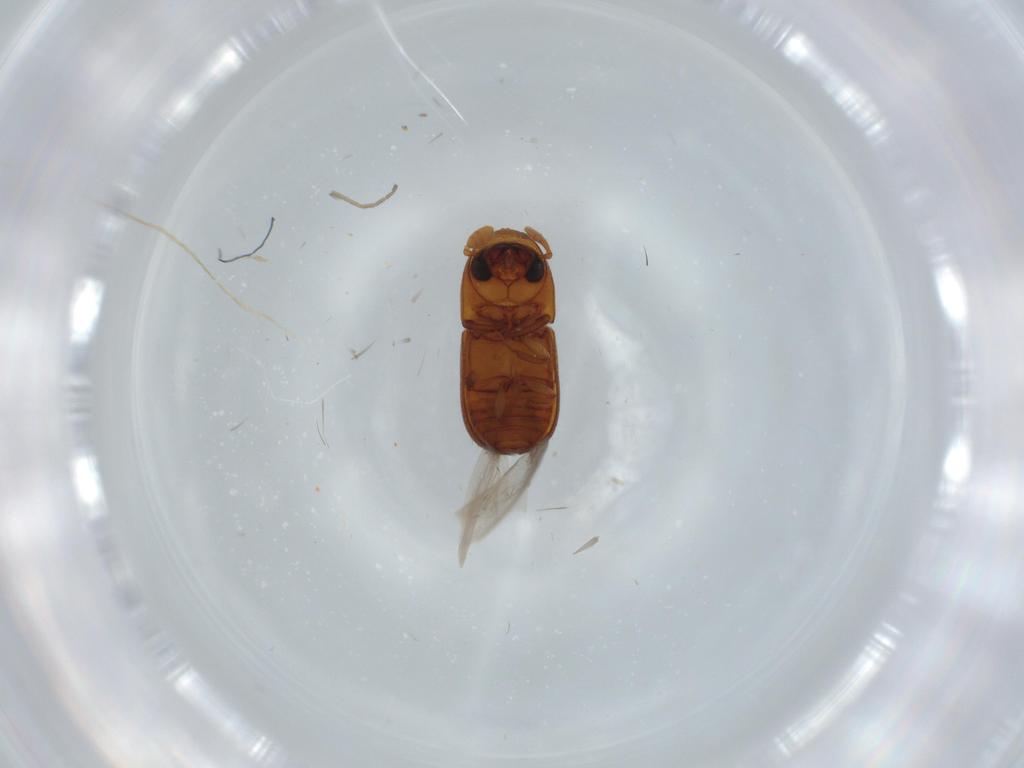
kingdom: Animalia
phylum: Arthropoda
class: Insecta
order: Coleoptera
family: Curculionidae
